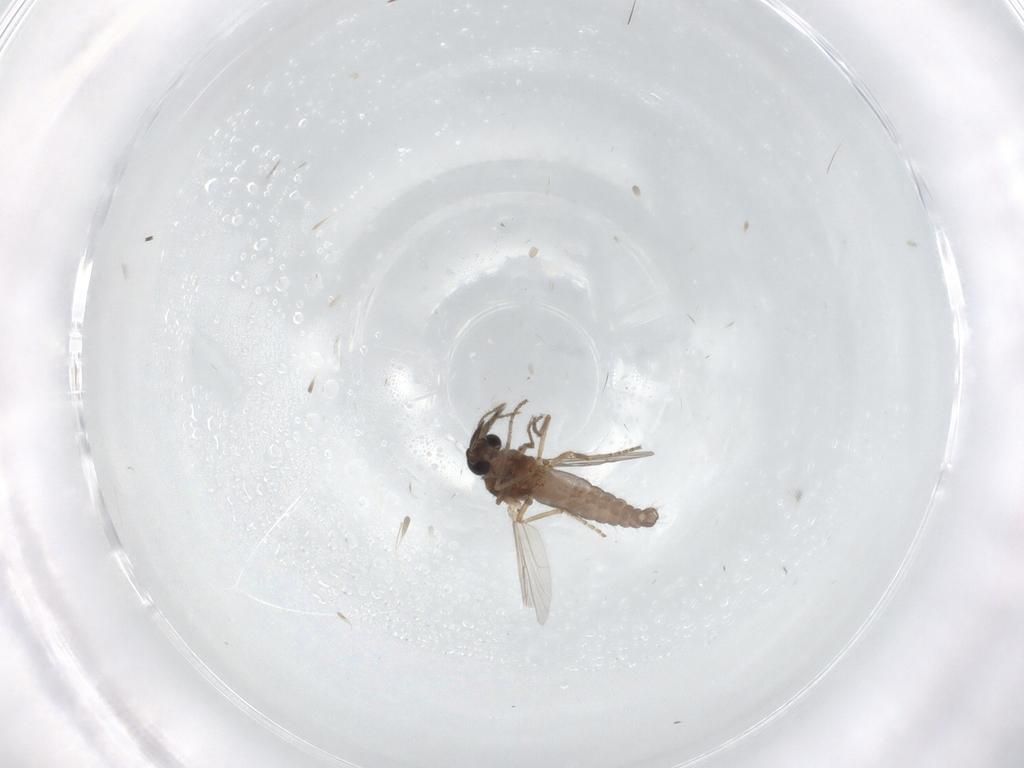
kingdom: Animalia
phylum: Arthropoda
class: Insecta
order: Diptera
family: Ceratopogonidae
